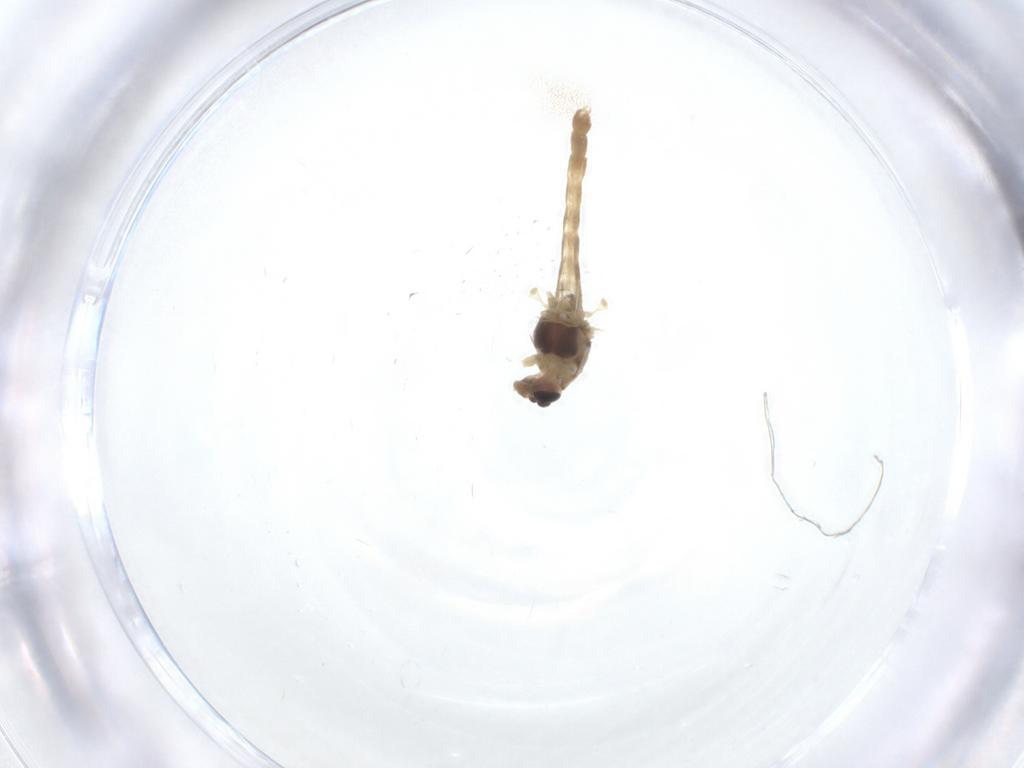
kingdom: Animalia
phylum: Arthropoda
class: Insecta
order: Diptera
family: Chironomidae
